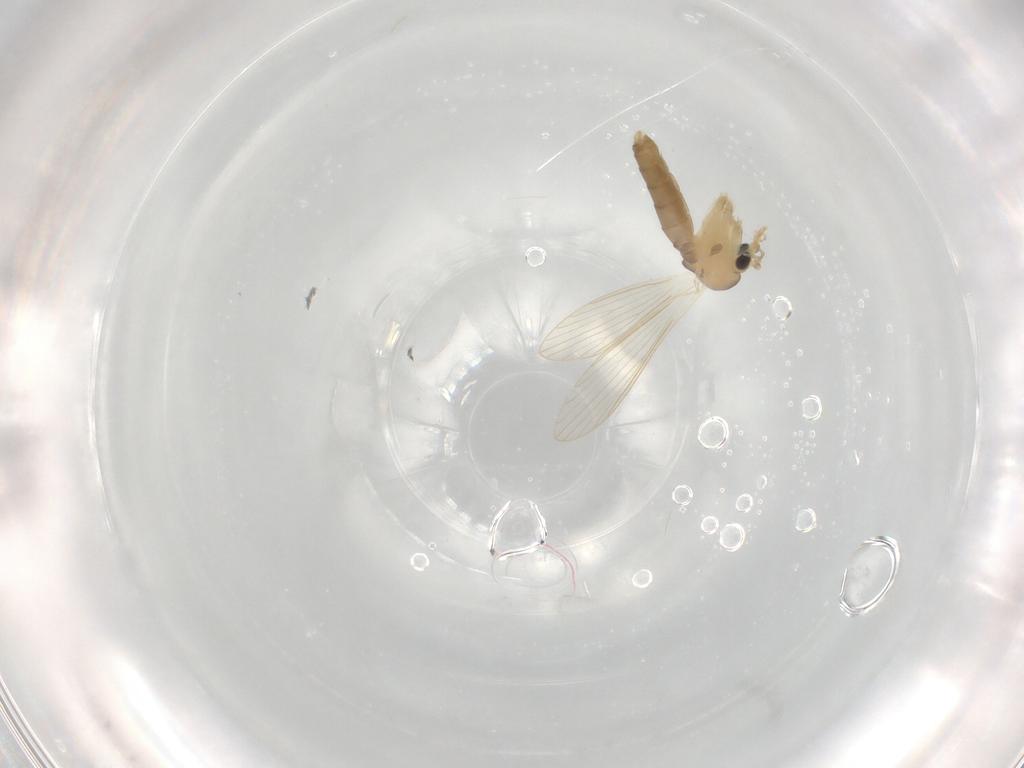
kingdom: Animalia
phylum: Arthropoda
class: Insecta
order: Diptera
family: Psychodidae
